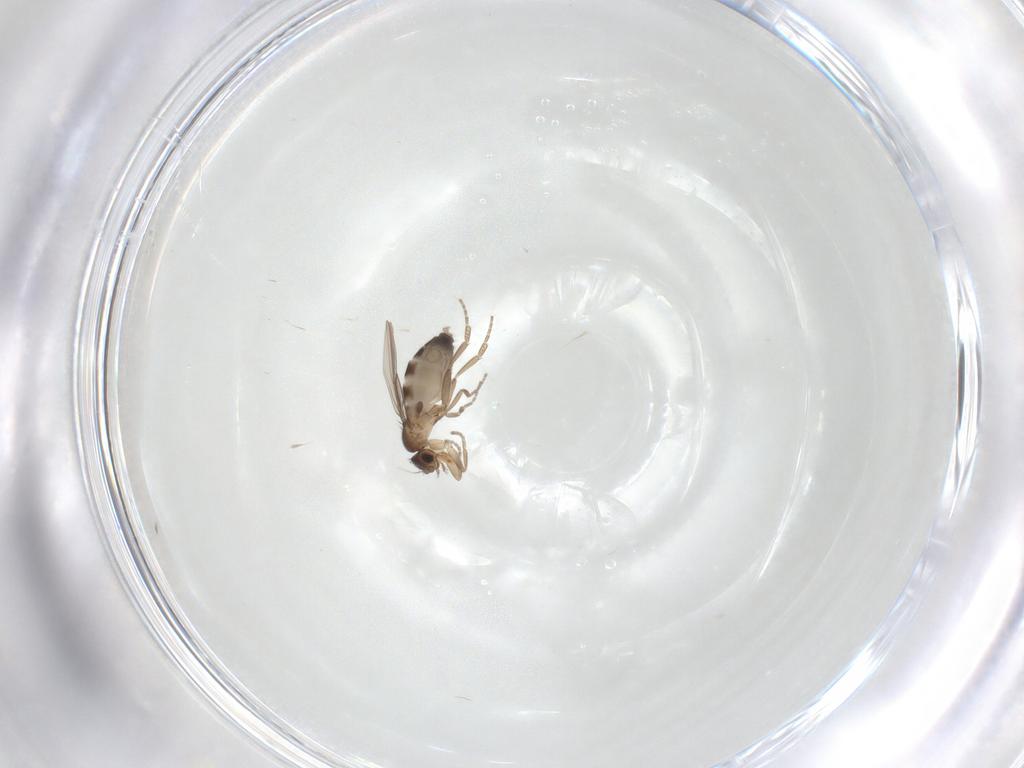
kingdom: Animalia
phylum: Arthropoda
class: Insecta
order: Diptera
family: Phoridae
